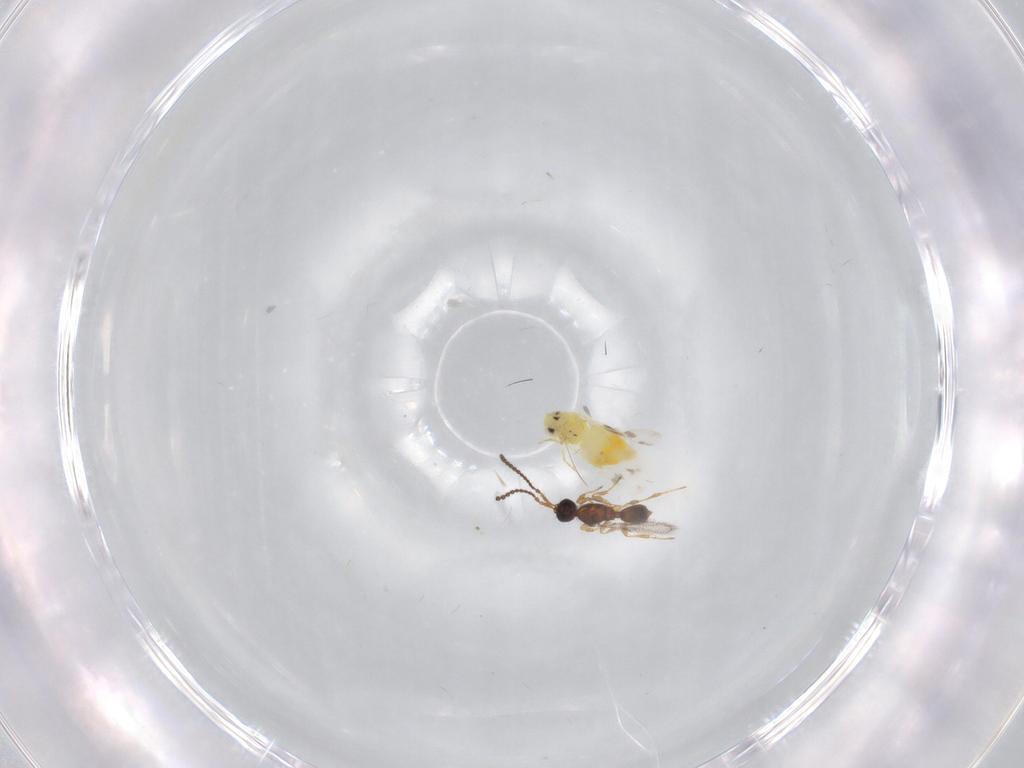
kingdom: Animalia
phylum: Arthropoda
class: Insecta
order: Hemiptera
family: Aleyrodidae
